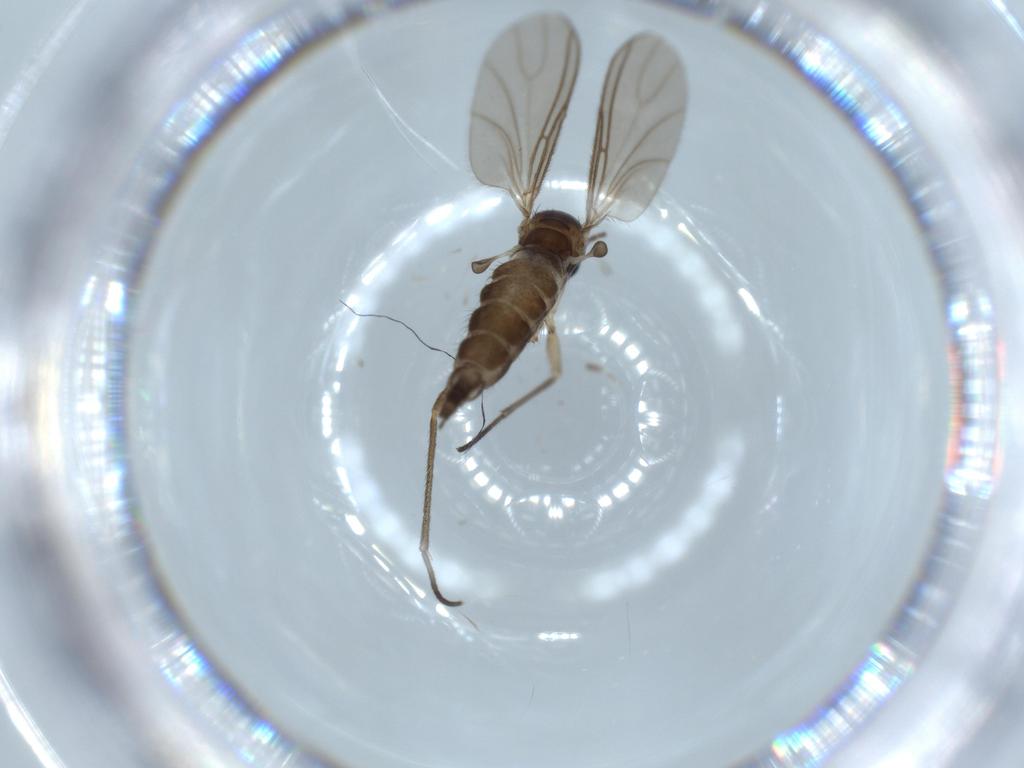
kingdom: Animalia
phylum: Arthropoda
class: Insecta
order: Diptera
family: Sciaridae
